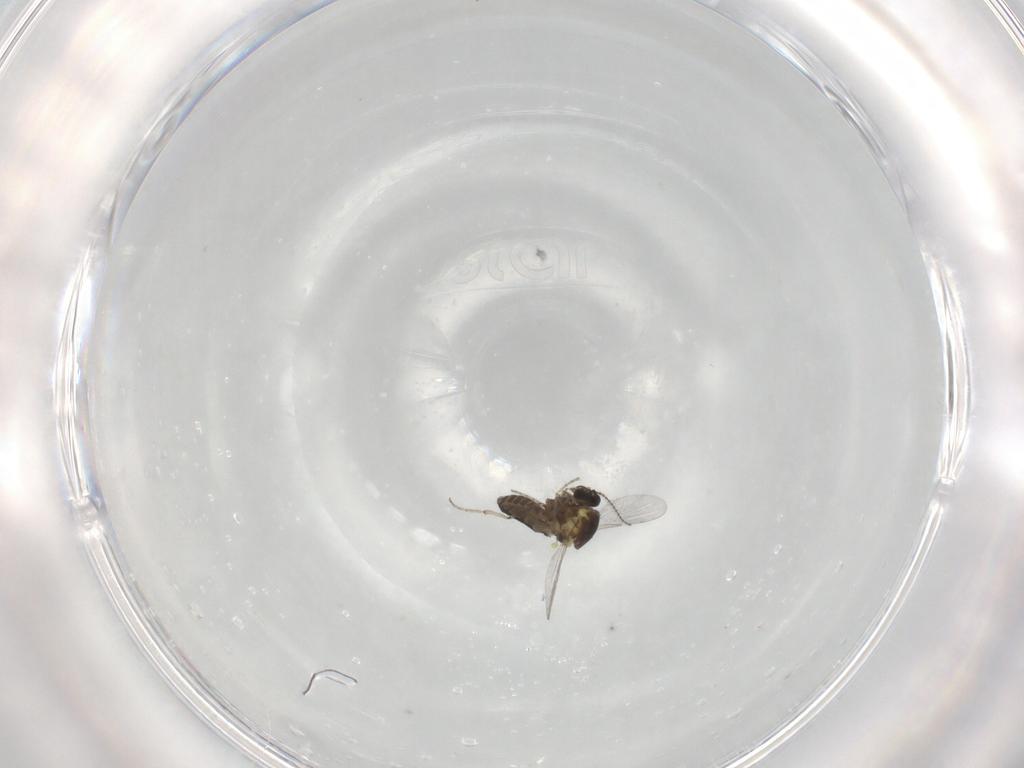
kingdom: Animalia
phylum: Arthropoda
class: Insecta
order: Diptera
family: Ceratopogonidae
